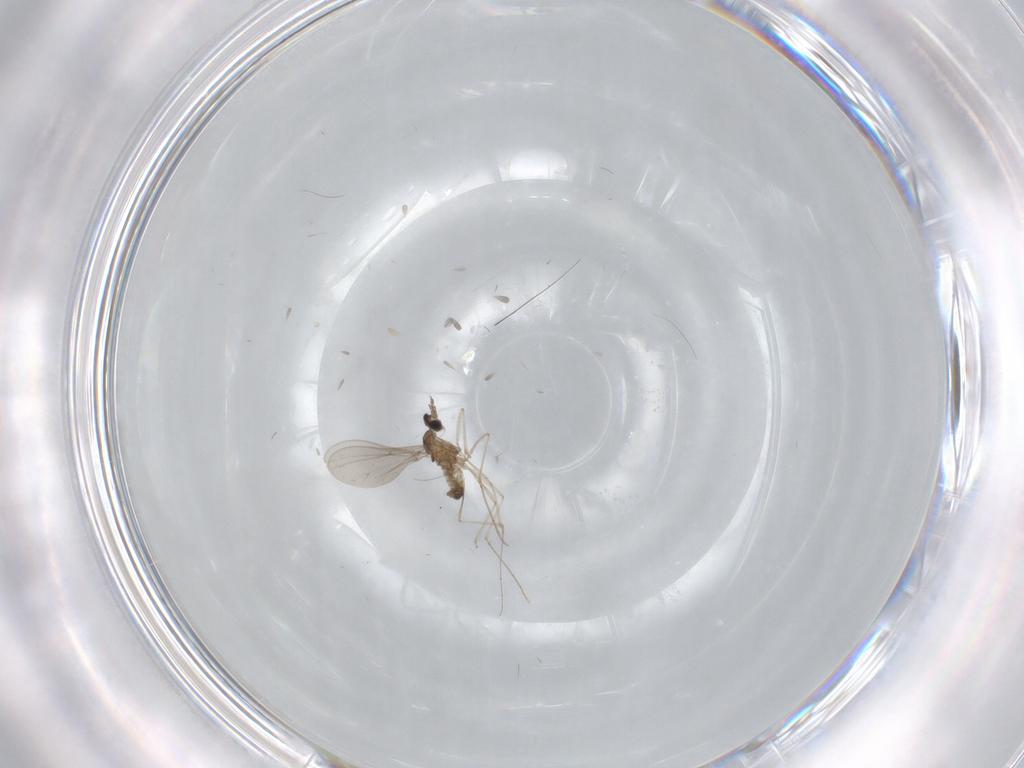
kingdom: Animalia
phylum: Arthropoda
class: Insecta
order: Diptera
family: Cecidomyiidae
